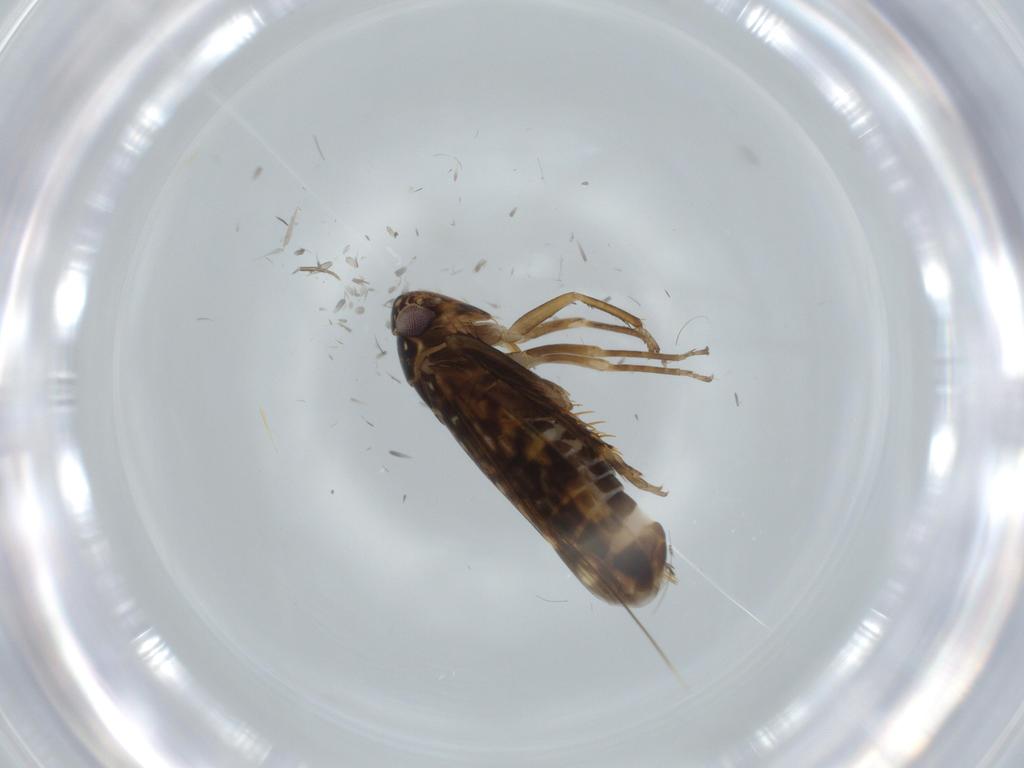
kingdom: Animalia
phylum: Arthropoda
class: Insecta
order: Hemiptera
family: Cicadellidae
